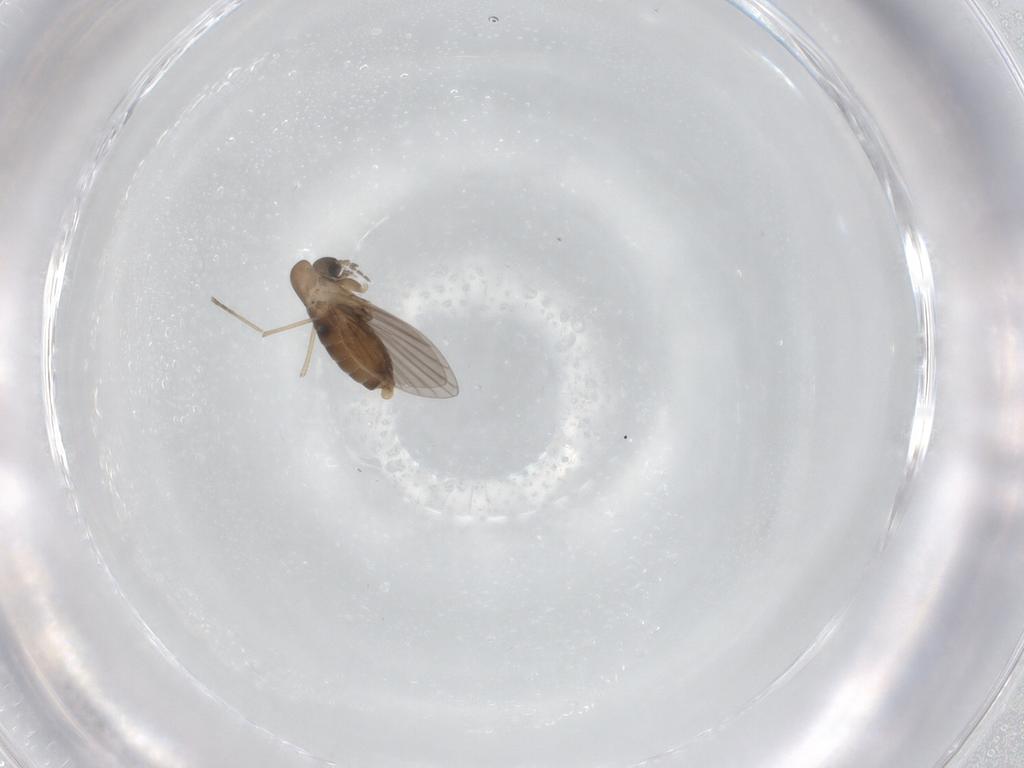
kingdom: Animalia
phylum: Arthropoda
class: Insecta
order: Diptera
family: Sciaridae
